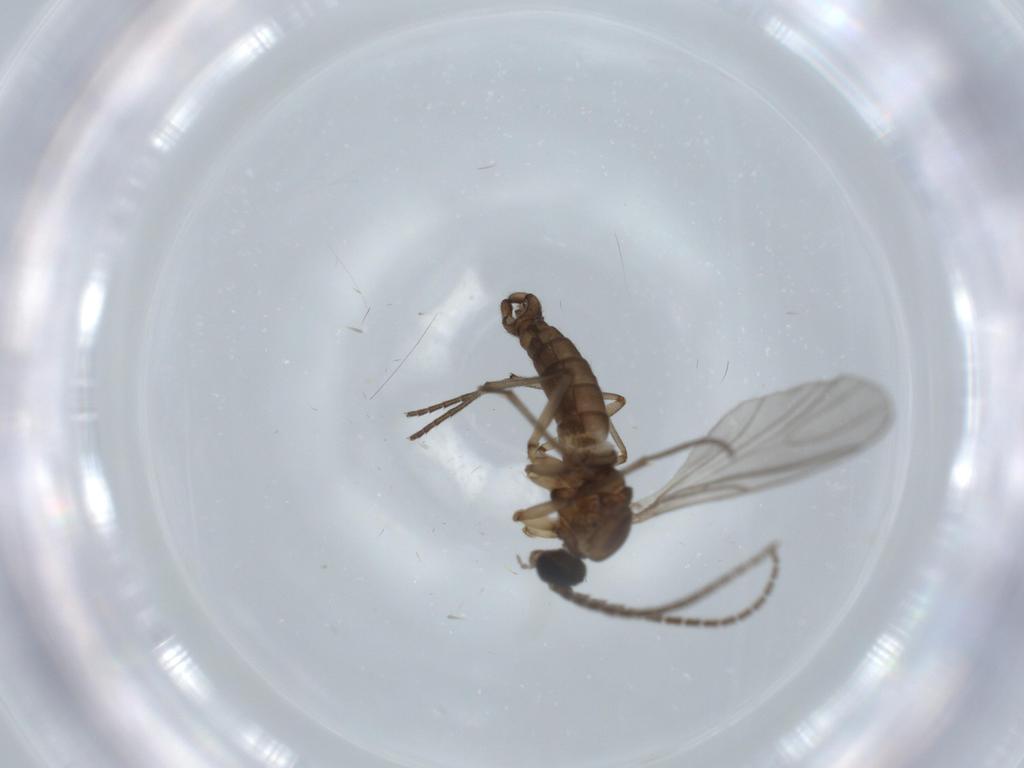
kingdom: Animalia
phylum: Arthropoda
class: Insecta
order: Diptera
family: Sciaridae
